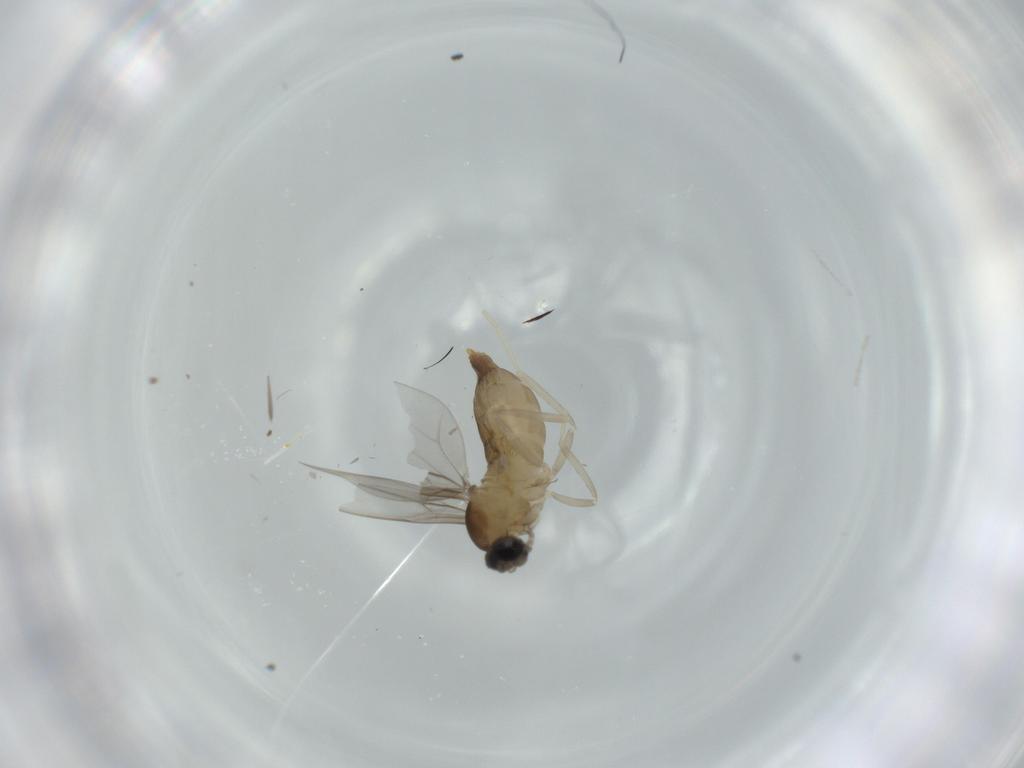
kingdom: Animalia
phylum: Arthropoda
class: Insecta
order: Diptera
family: Cecidomyiidae
